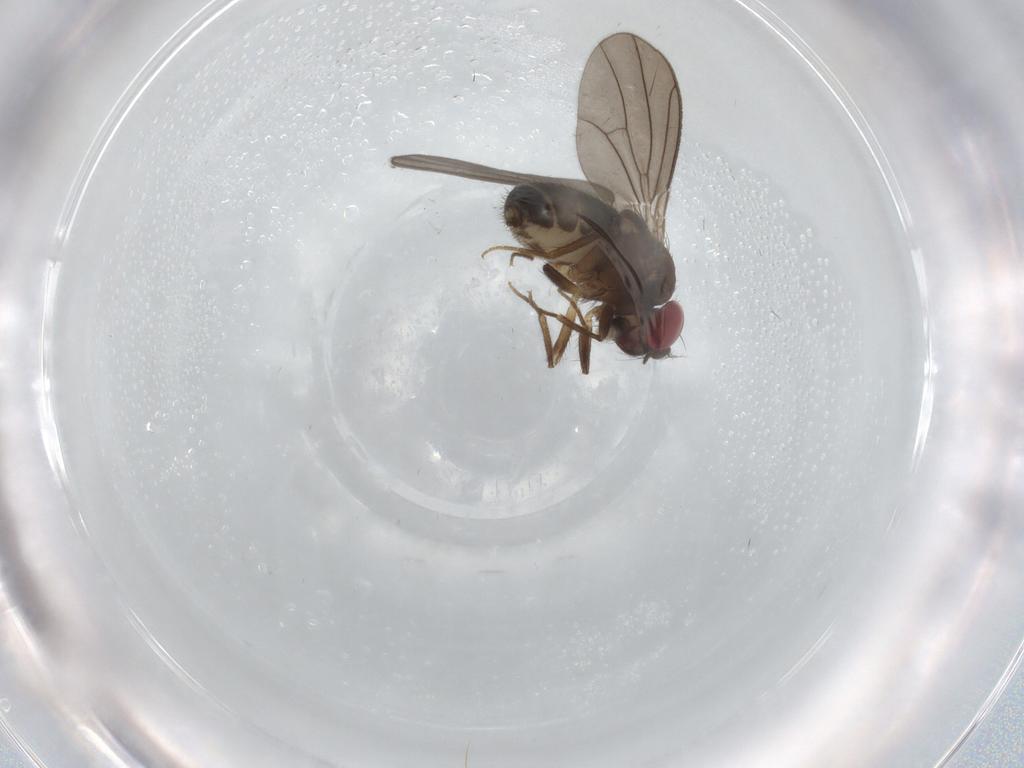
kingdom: Animalia
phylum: Arthropoda
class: Insecta
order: Diptera
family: Drosophilidae
